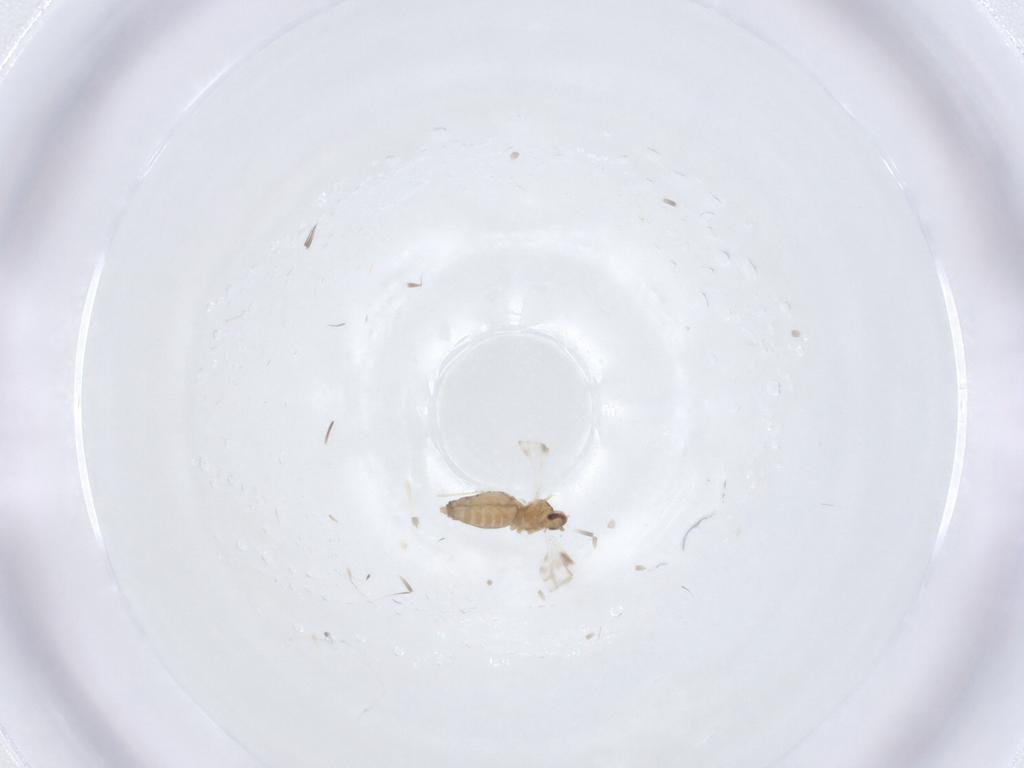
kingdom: Animalia
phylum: Arthropoda
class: Insecta
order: Diptera
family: Cecidomyiidae
